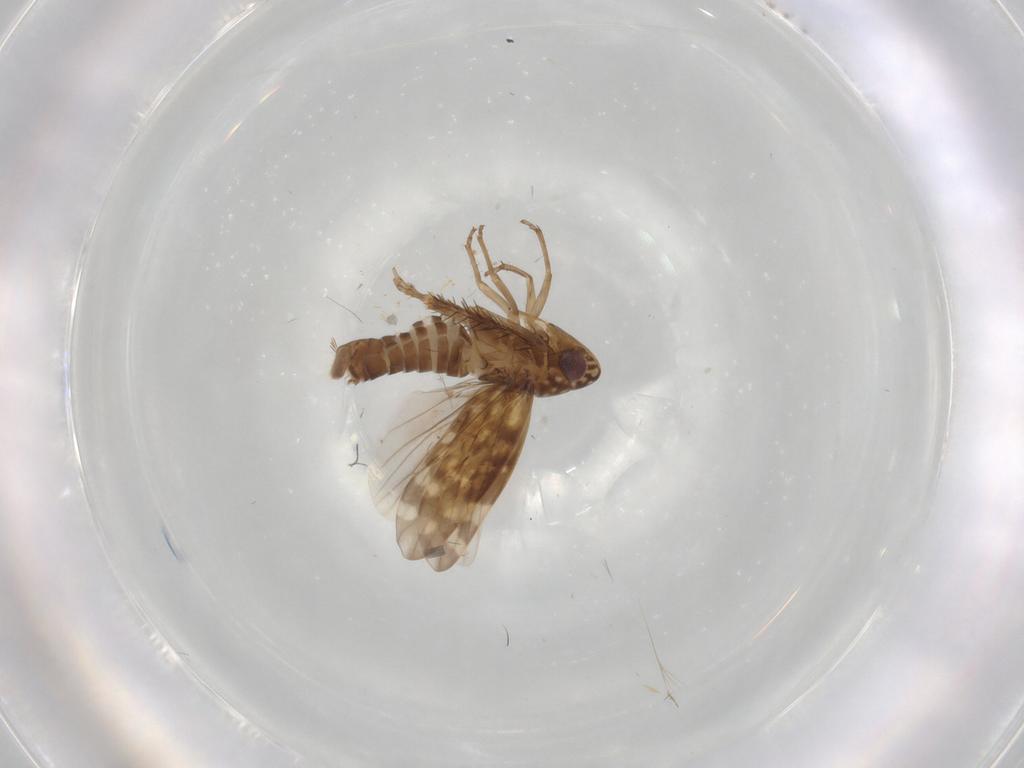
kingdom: Animalia
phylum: Arthropoda
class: Insecta
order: Hemiptera
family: Cicadellidae
